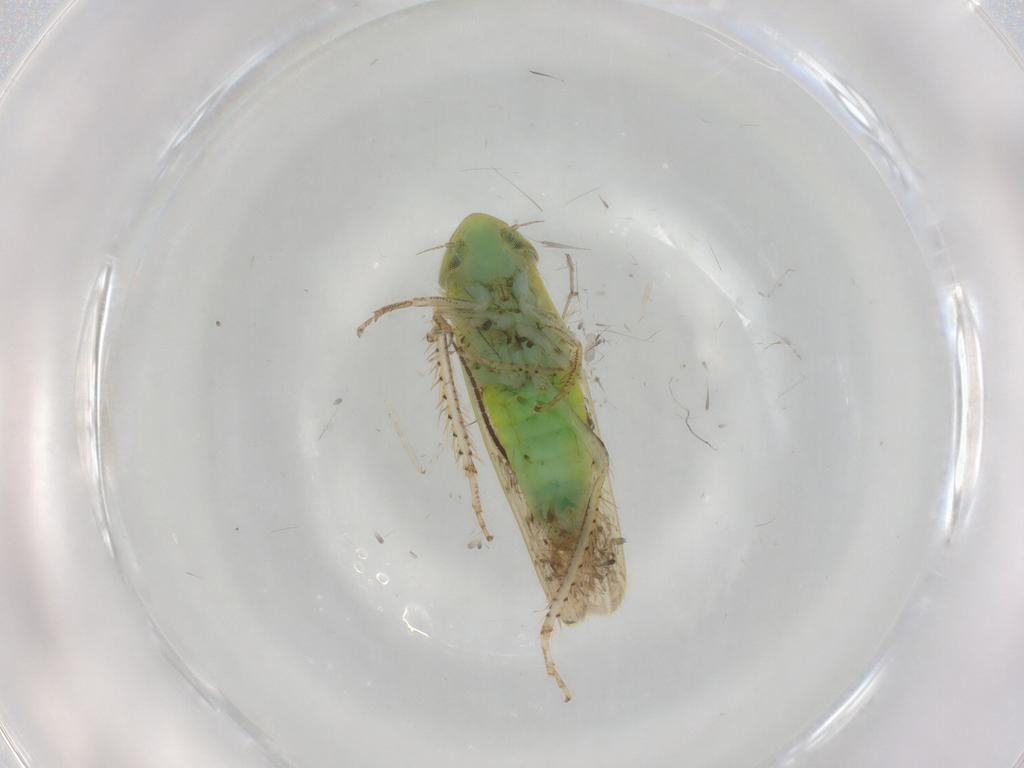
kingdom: Animalia
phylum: Arthropoda
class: Insecta
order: Hemiptera
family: Cicadellidae
